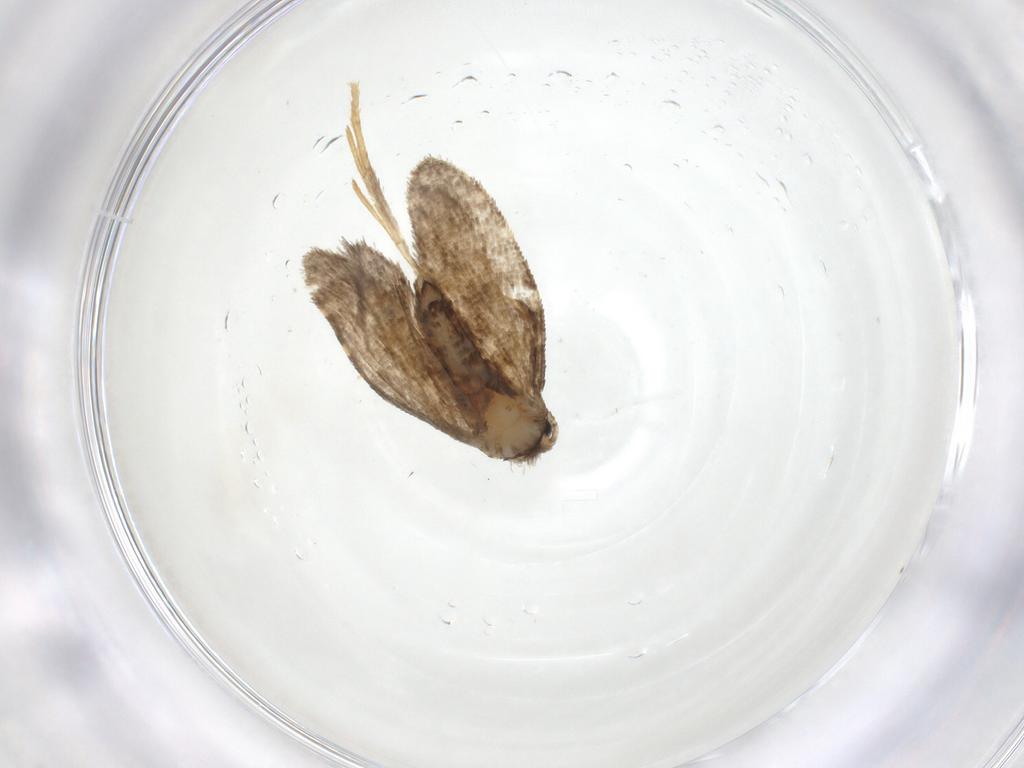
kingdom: Animalia
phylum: Arthropoda
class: Insecta
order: Lepidoptera
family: Psychidae
